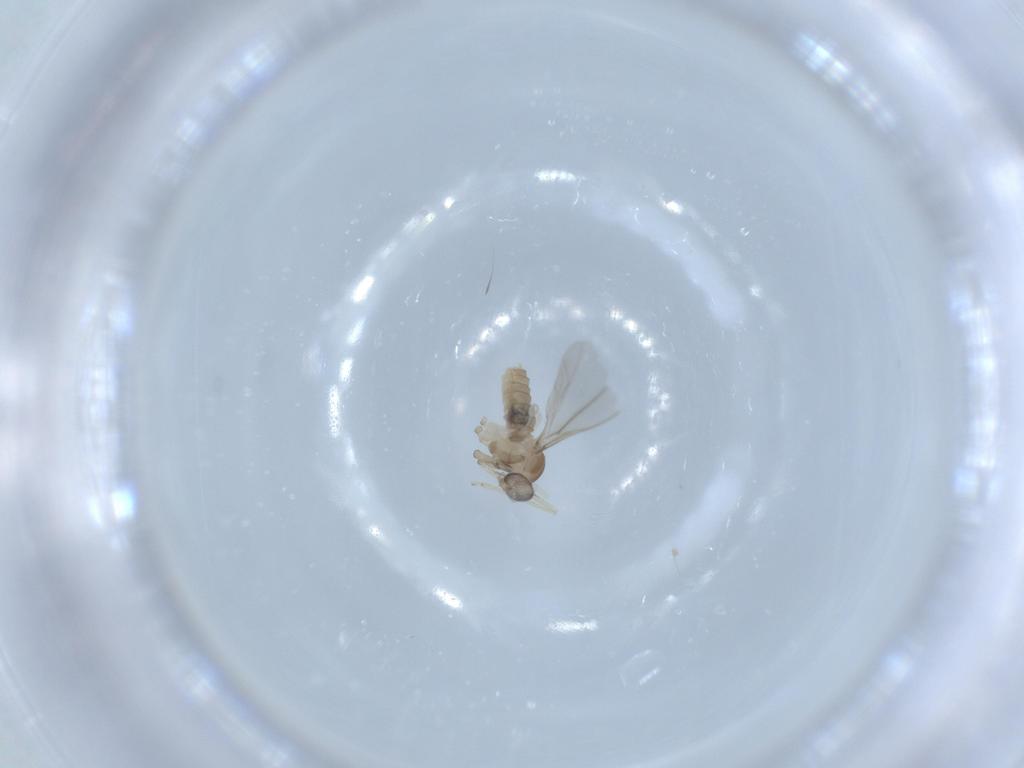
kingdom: Animalia
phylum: Arthropoda
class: Insecta
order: Diptera
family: Cecidomyiidae
